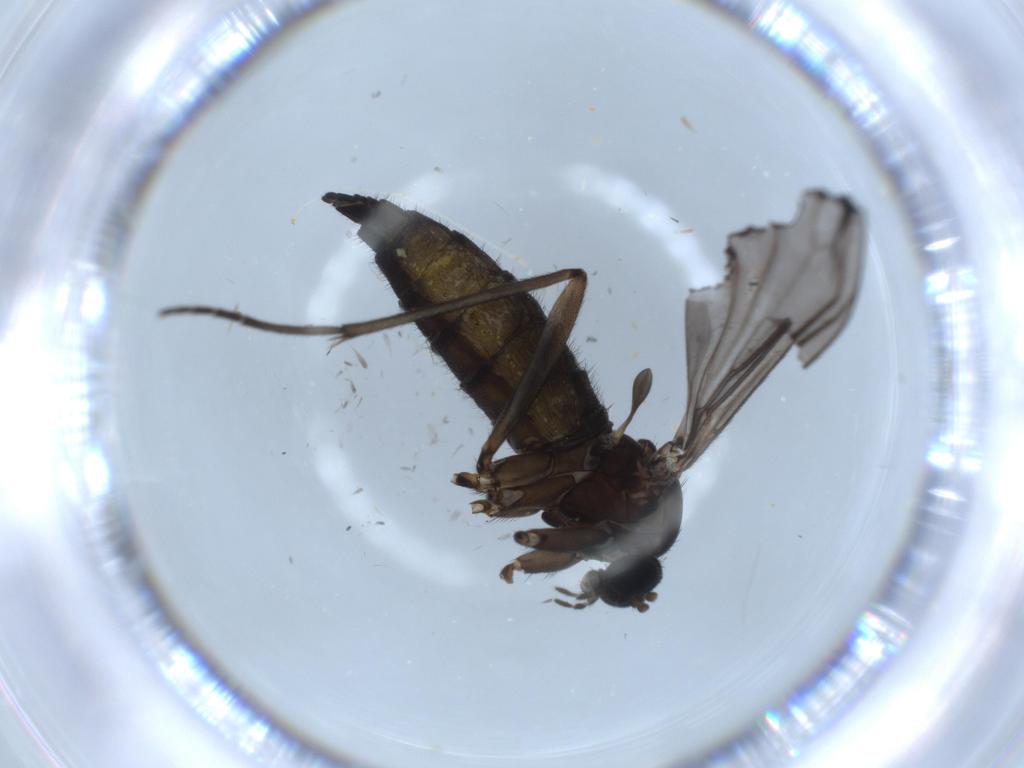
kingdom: Animalia
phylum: Arthropoda
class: Insecta
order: Diptera
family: Sciaridae
